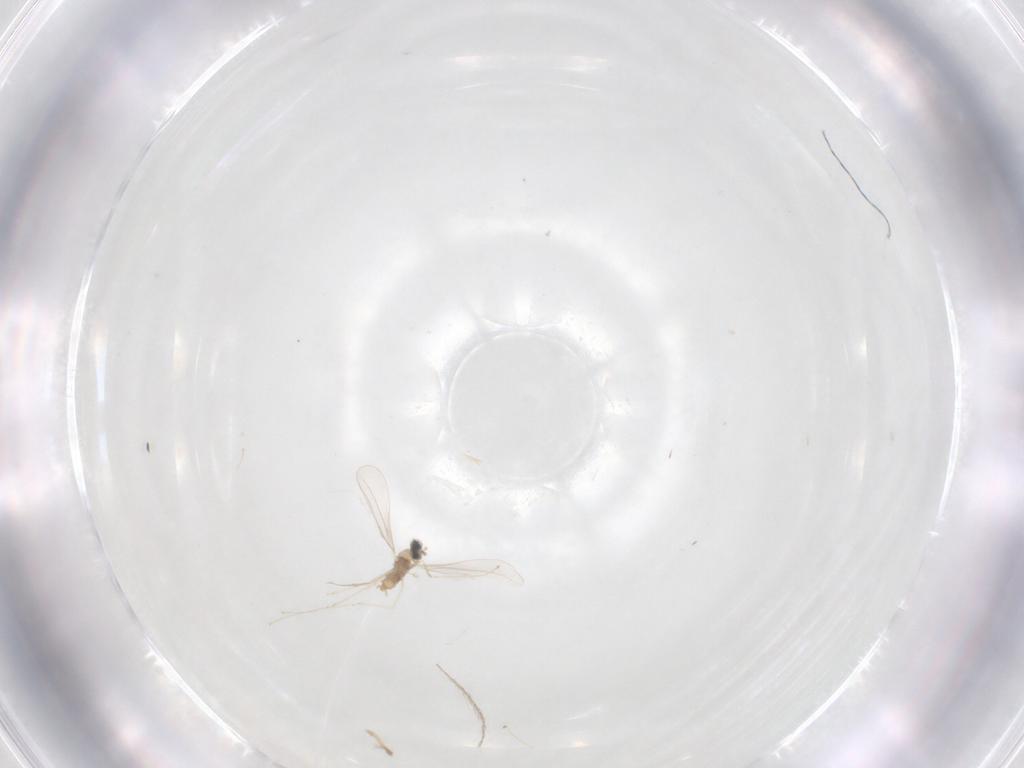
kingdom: Animalia
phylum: Arthropoda
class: Insecta
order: Diptera
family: Cecidomyiidae
